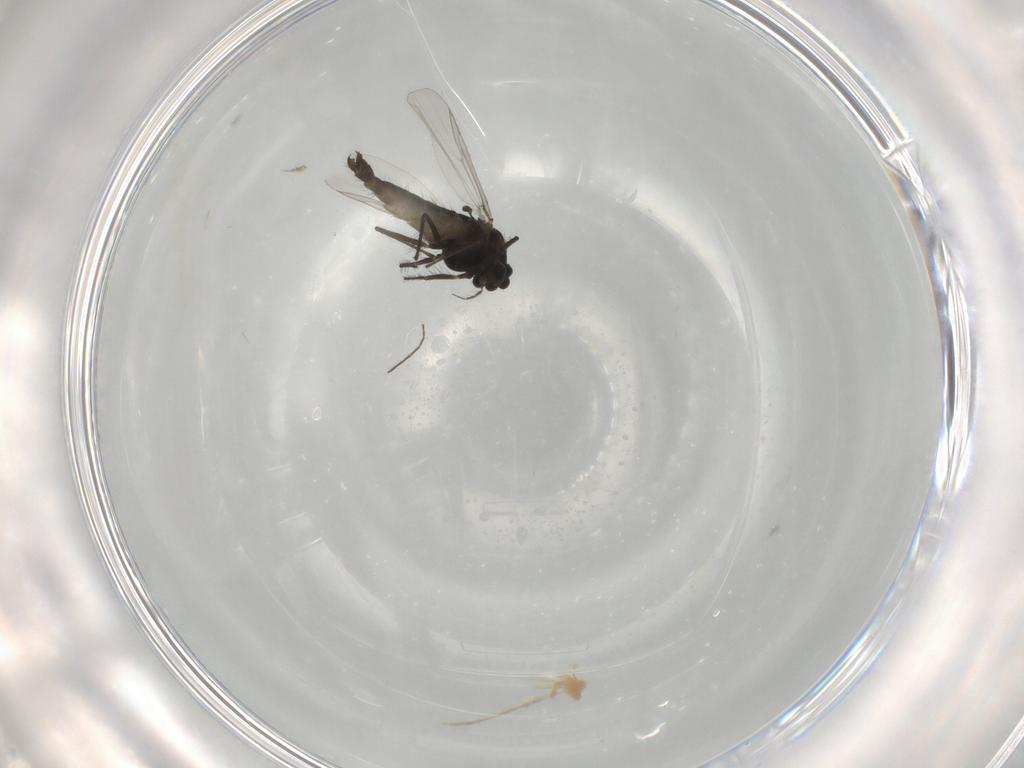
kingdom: Animalia
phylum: Arthropoda
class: Insecta
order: Diptera
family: Chironomidae
